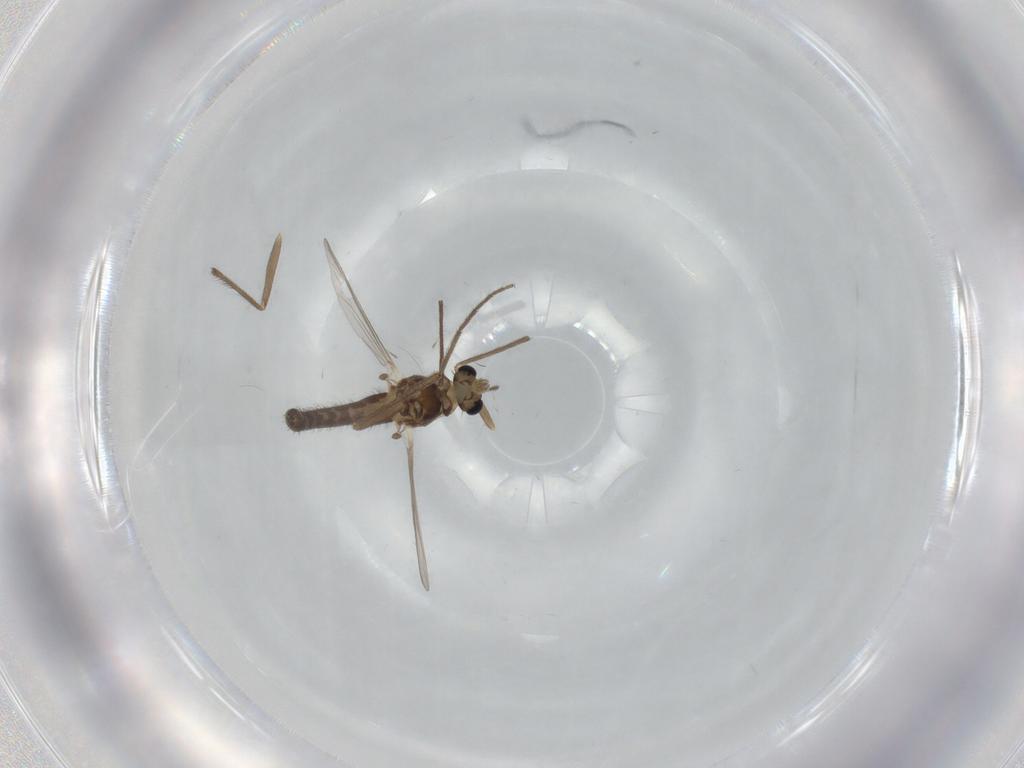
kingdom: Animalia
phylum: Arthropoda
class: Insecta
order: Diptera
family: Chironomidae
